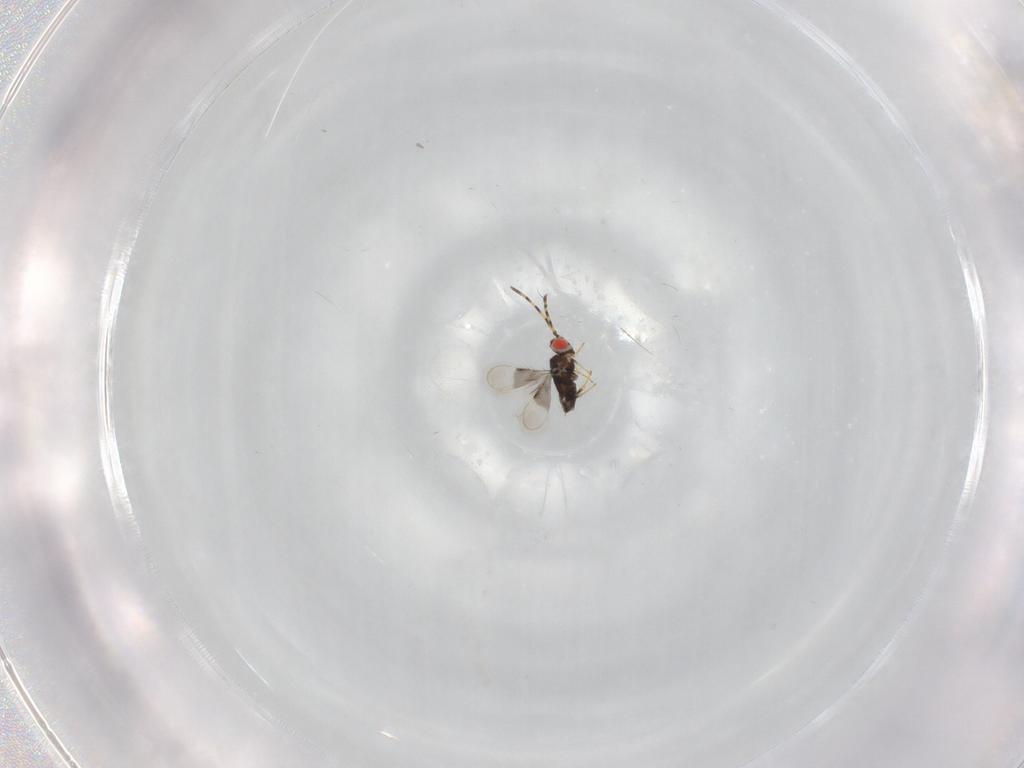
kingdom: Animalia
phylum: Arthropoda
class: Insecta
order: Hymenoptera
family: Azotidae
